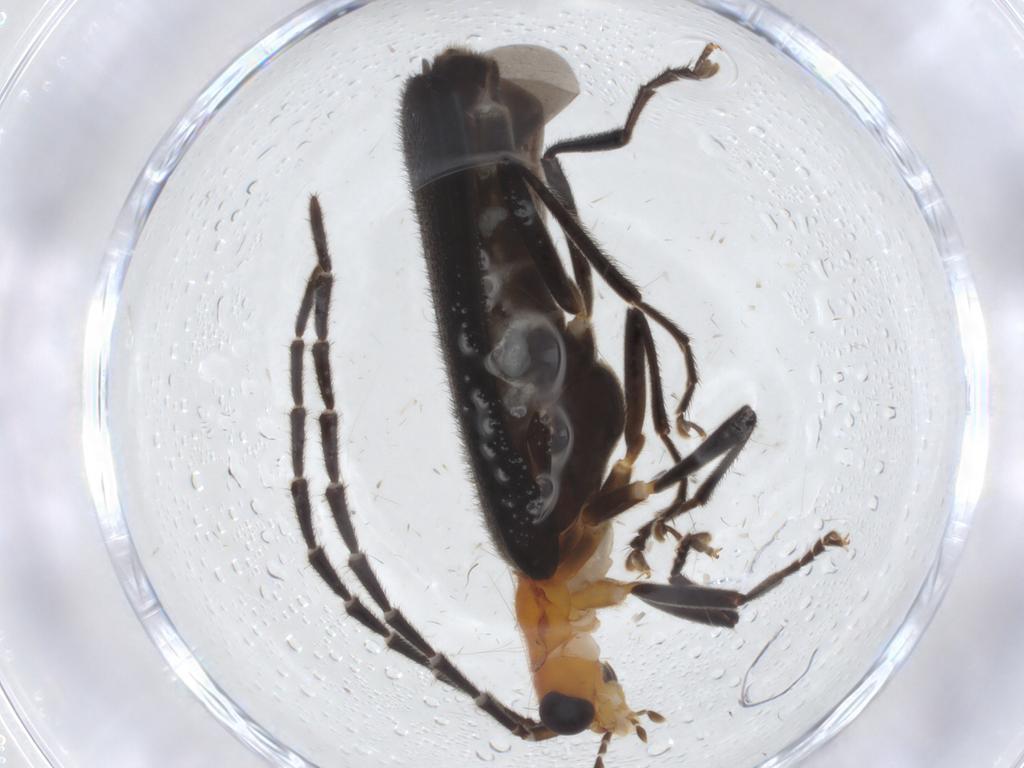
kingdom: Animalia
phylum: Arthropoda
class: Insecta
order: Coleoptera
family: Cantharidae
